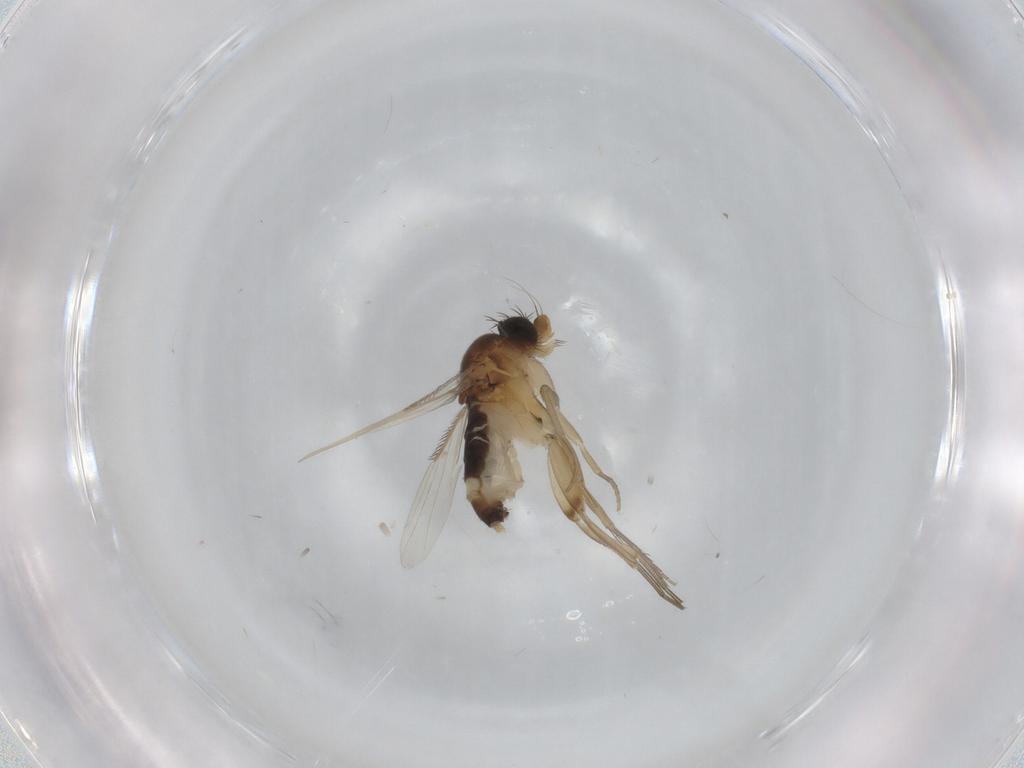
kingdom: Animalia
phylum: Arthropoda
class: Insecta
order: Diptera
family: Phoridae
